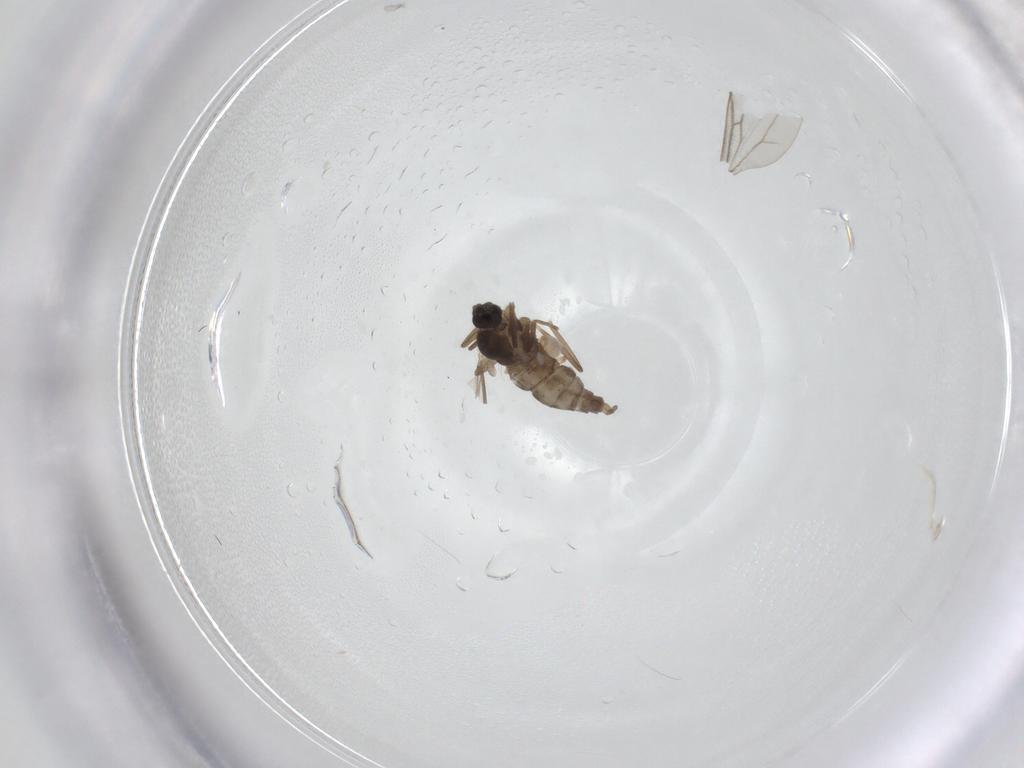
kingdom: Animalia
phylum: Arthropoda
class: Insecta
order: Diptera
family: Cecidomyiidae
